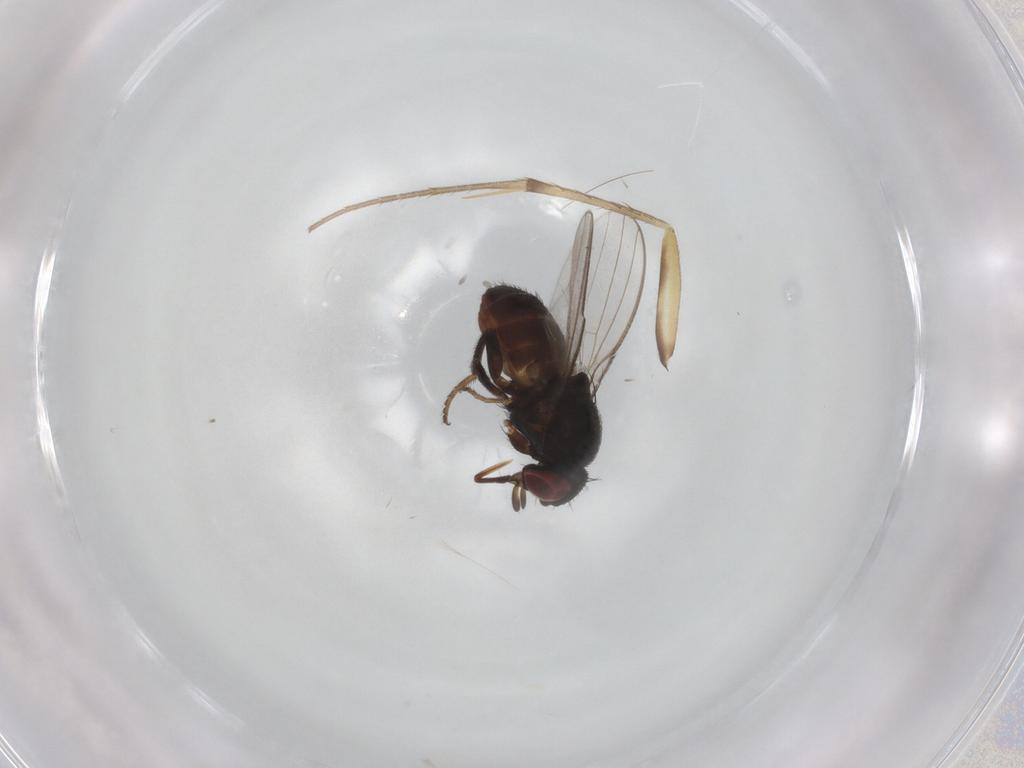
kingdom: Animalia
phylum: Arthropoda
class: Insecta
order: Diptera
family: Milichiidae
